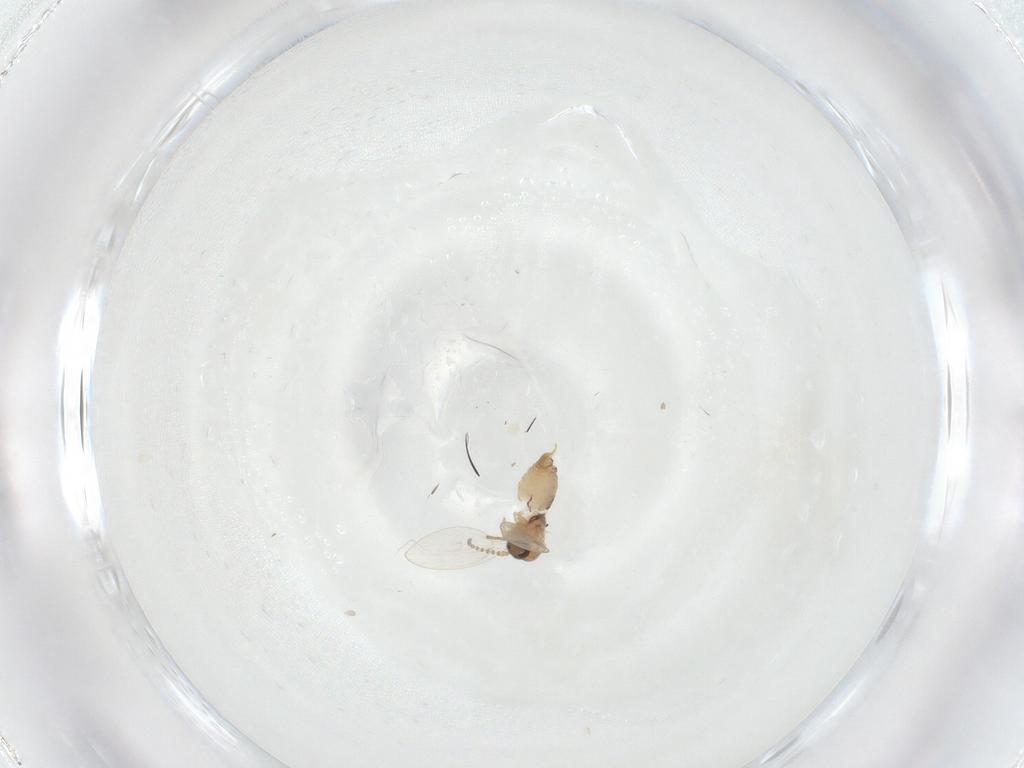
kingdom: Animalia
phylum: Arthropoda
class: Insecta
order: Diptera
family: Psychodidae
